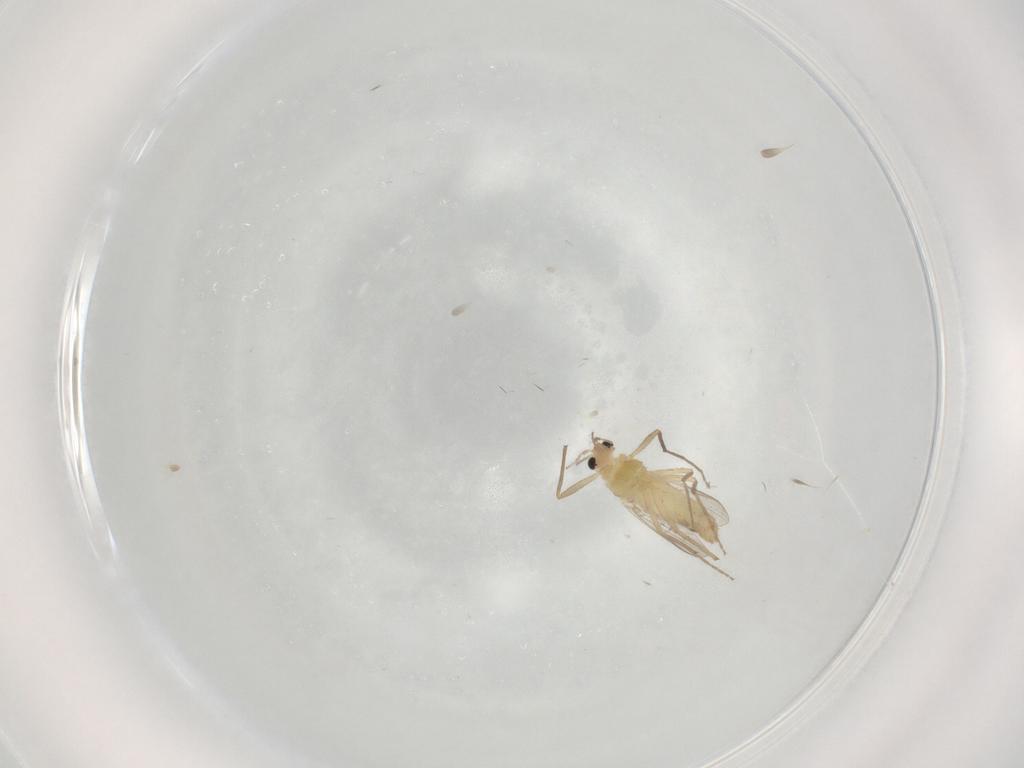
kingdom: Animalia
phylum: Arthropoda
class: Insecta
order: Diptera
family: Chironomidae
